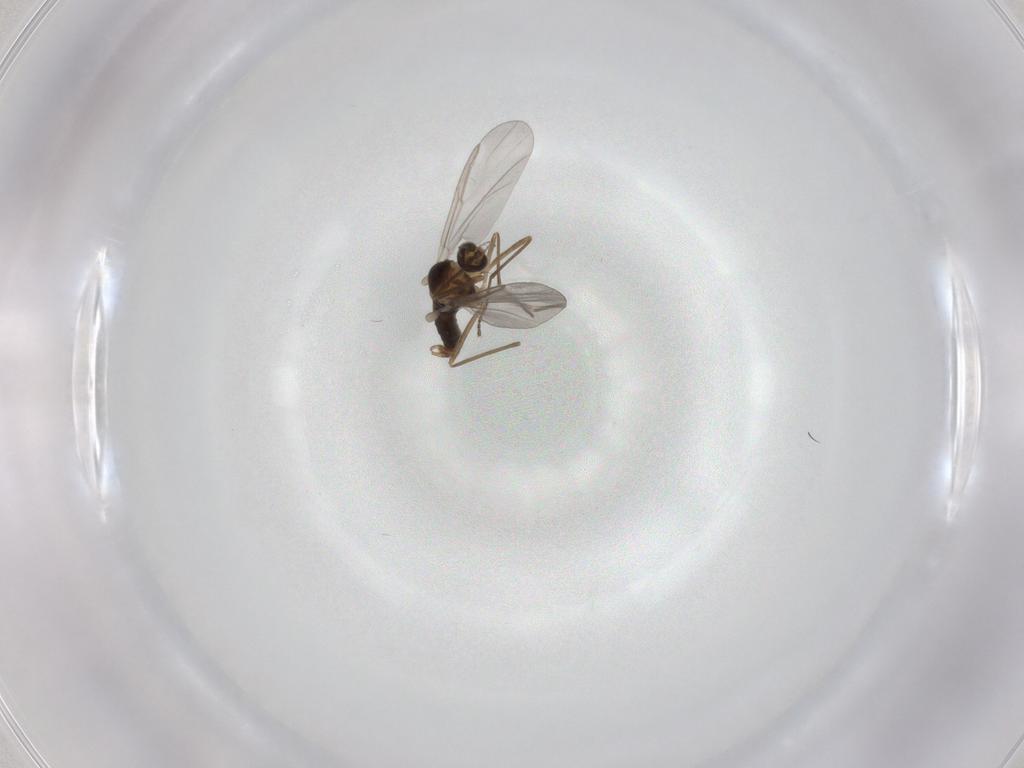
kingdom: Animalia
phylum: Arthropoda
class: Insecta
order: Diptera
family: Cecidomyiidae
